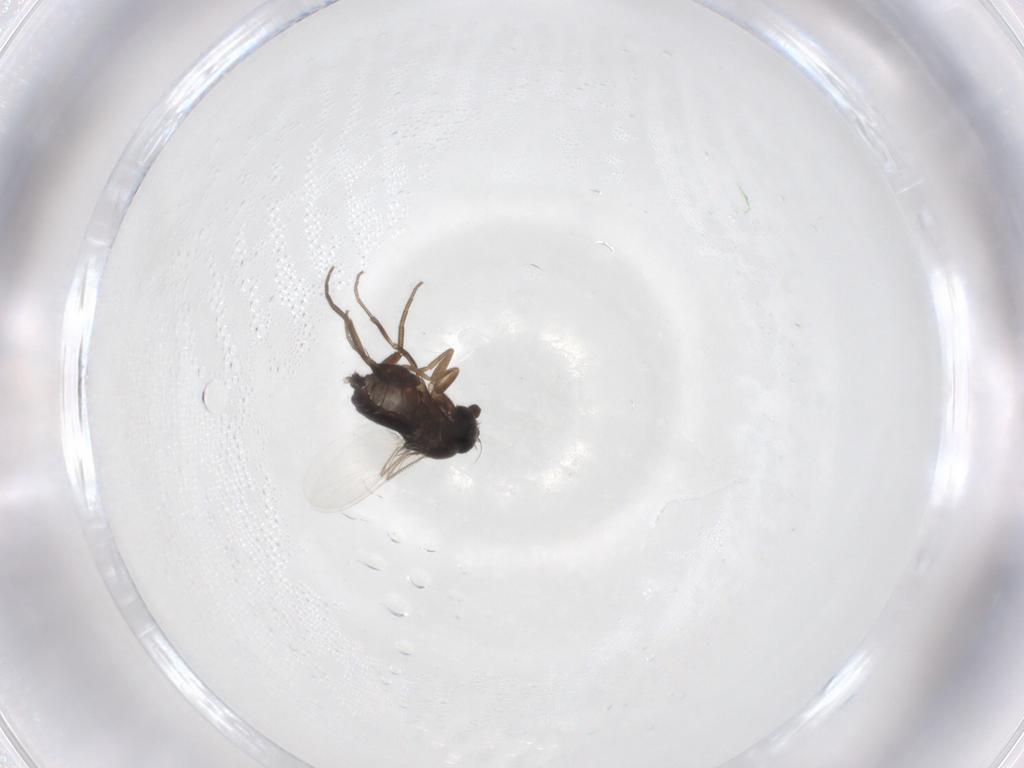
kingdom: Animalia
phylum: Arthropoda
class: Insecta
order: Diptera
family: Phoridae
